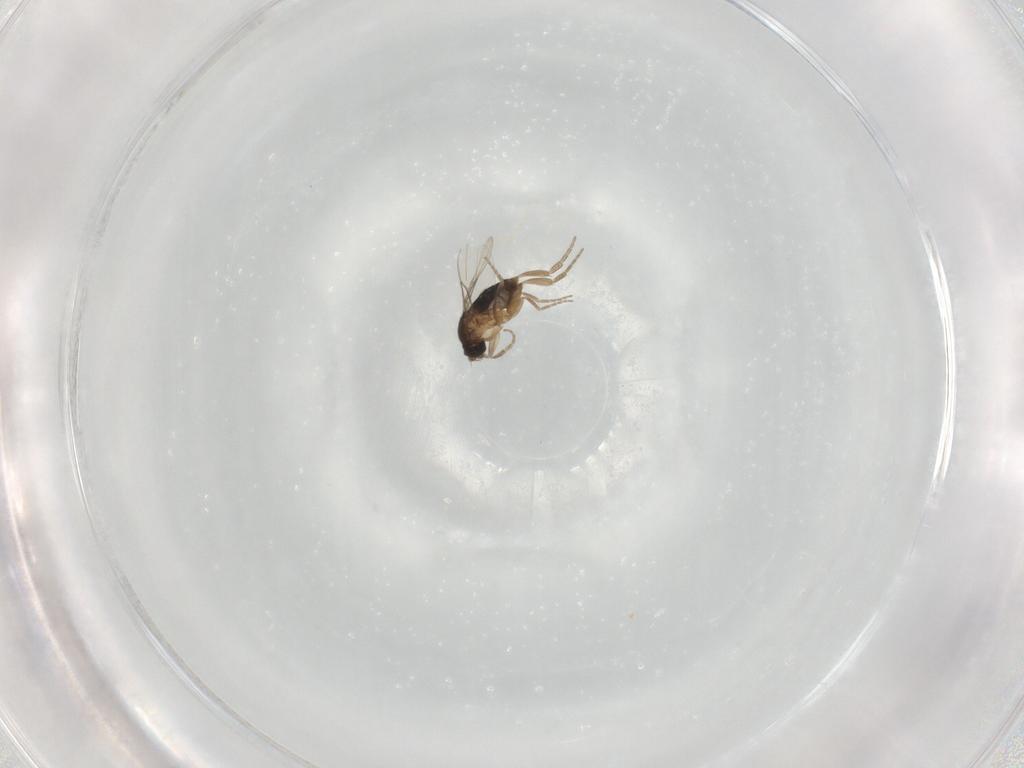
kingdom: Animalia
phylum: Arthropoda
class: Insecta
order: Diptera
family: Phoridae
